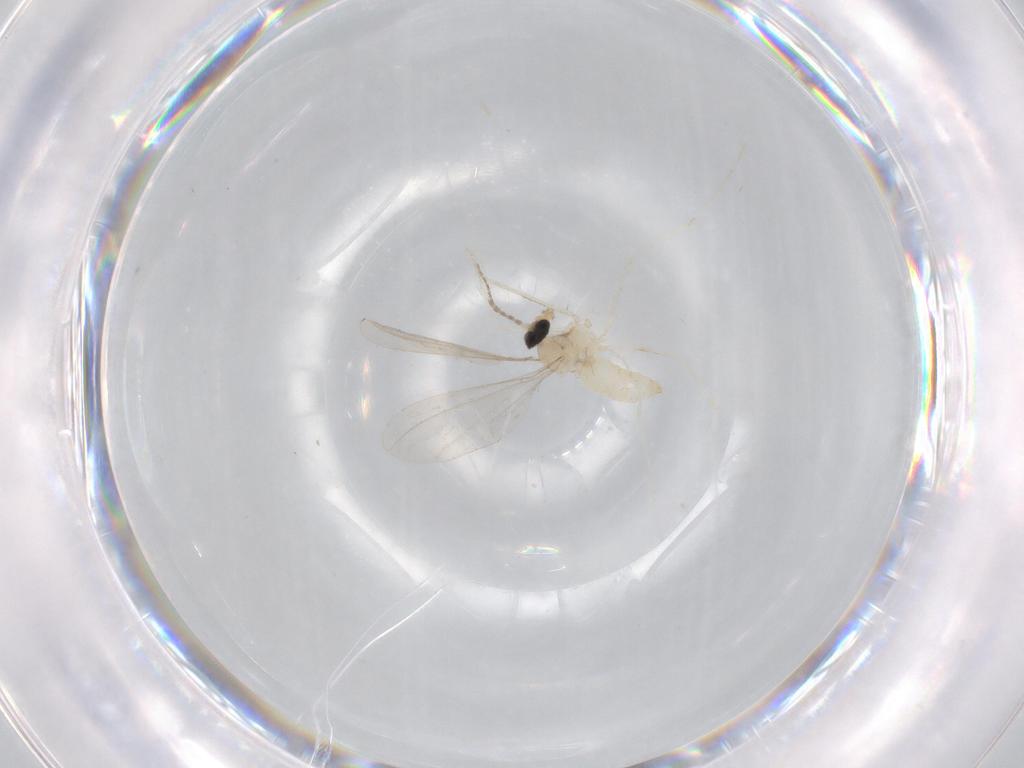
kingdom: Animalia
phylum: Arthropoda
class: Insecta
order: Diptera
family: Cecidomyiidae
